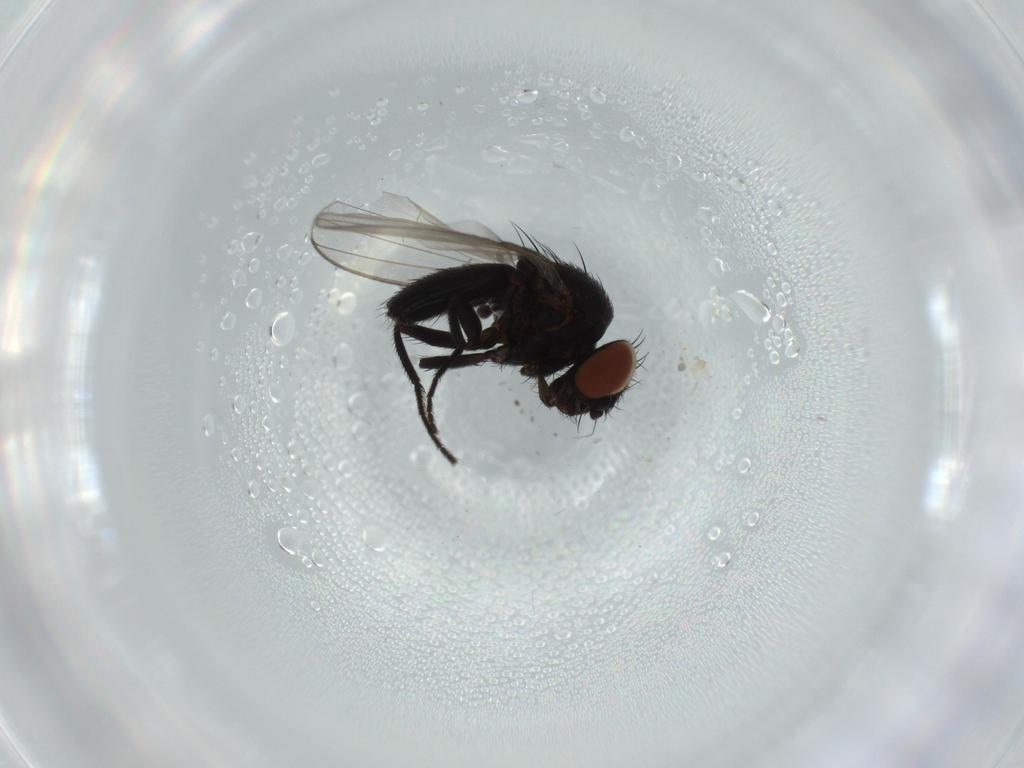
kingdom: Animalia
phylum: Arthropoda
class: Insecta
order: Diptera
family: Milichiidae
